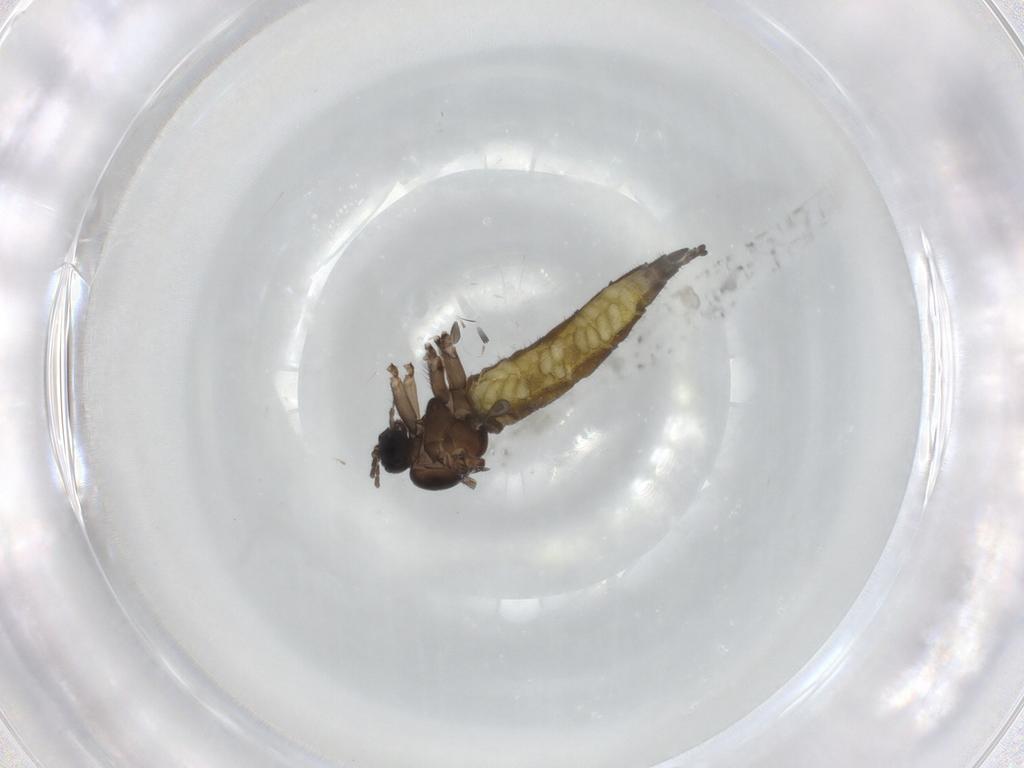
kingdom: Animalia
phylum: Arthropoda
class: Insecta
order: Diptera
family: Sciaridae
